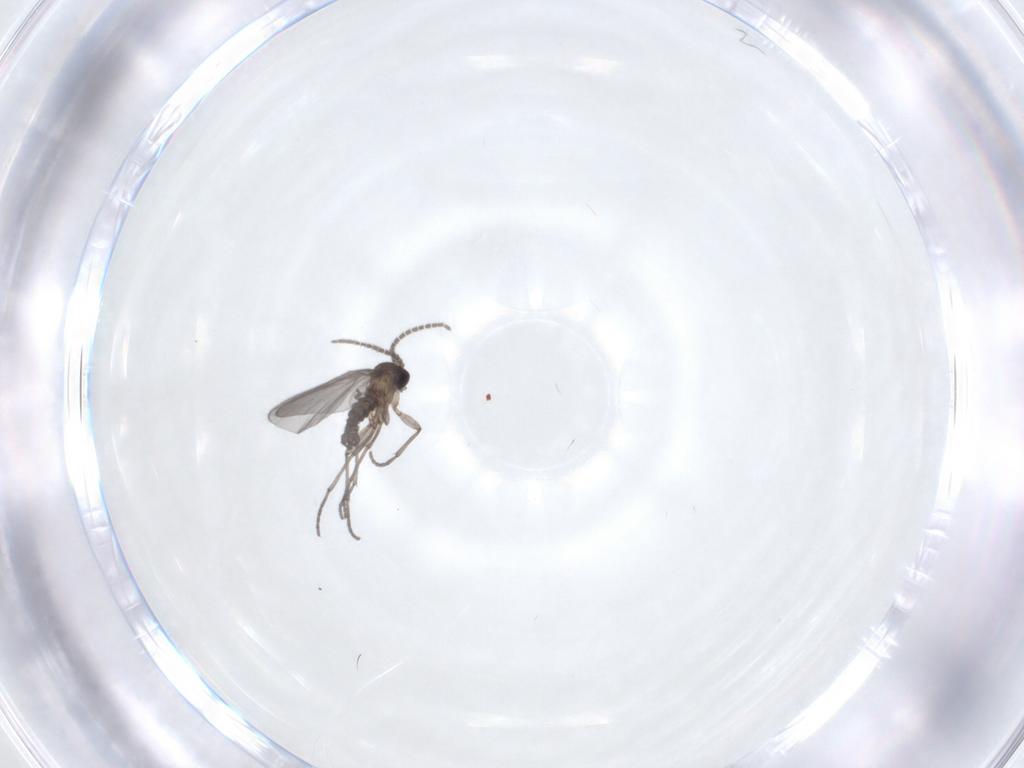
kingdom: Animalia
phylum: Arthropoda
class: Insecta
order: Diptera
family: Sciaridae
